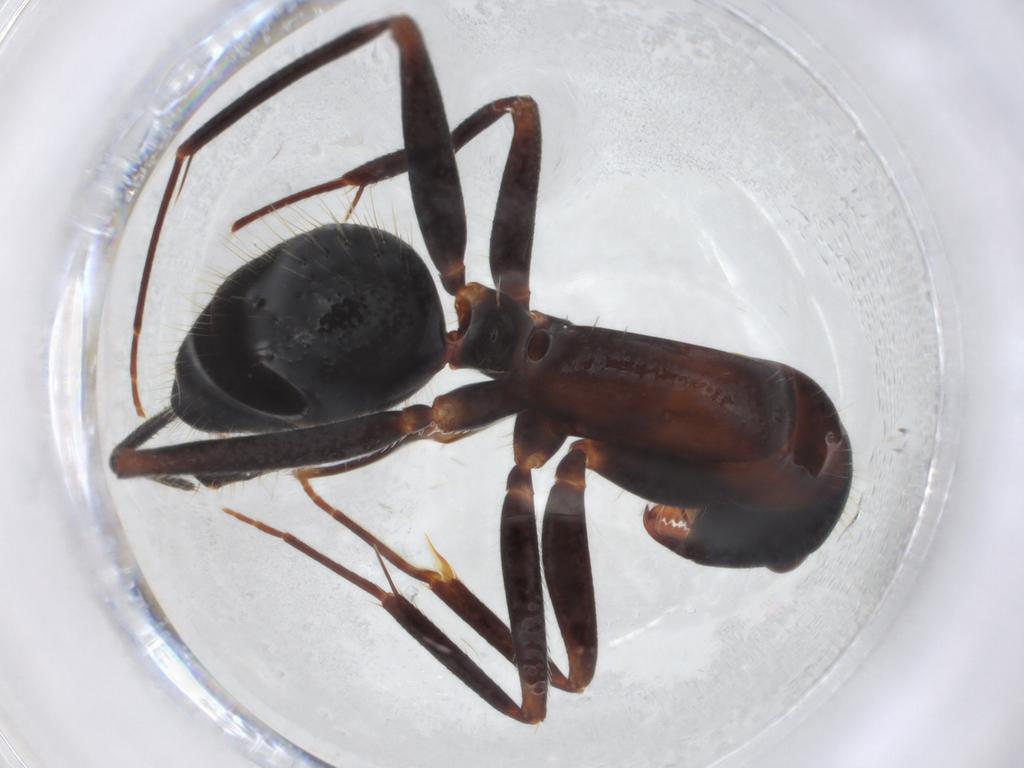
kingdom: Animalia
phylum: Arthropoda
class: Insecta
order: Hymenoptera
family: Formicidae
